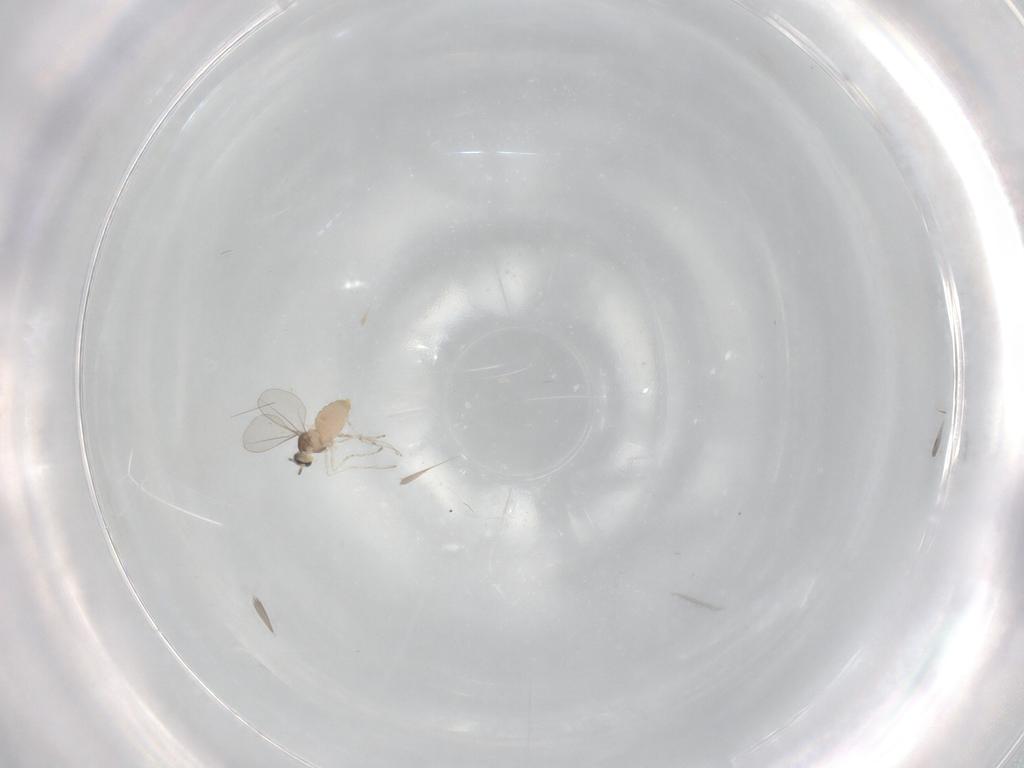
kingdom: Animalia
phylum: Arthropoda
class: Insecta
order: Diptera
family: Cecidomyiidae
